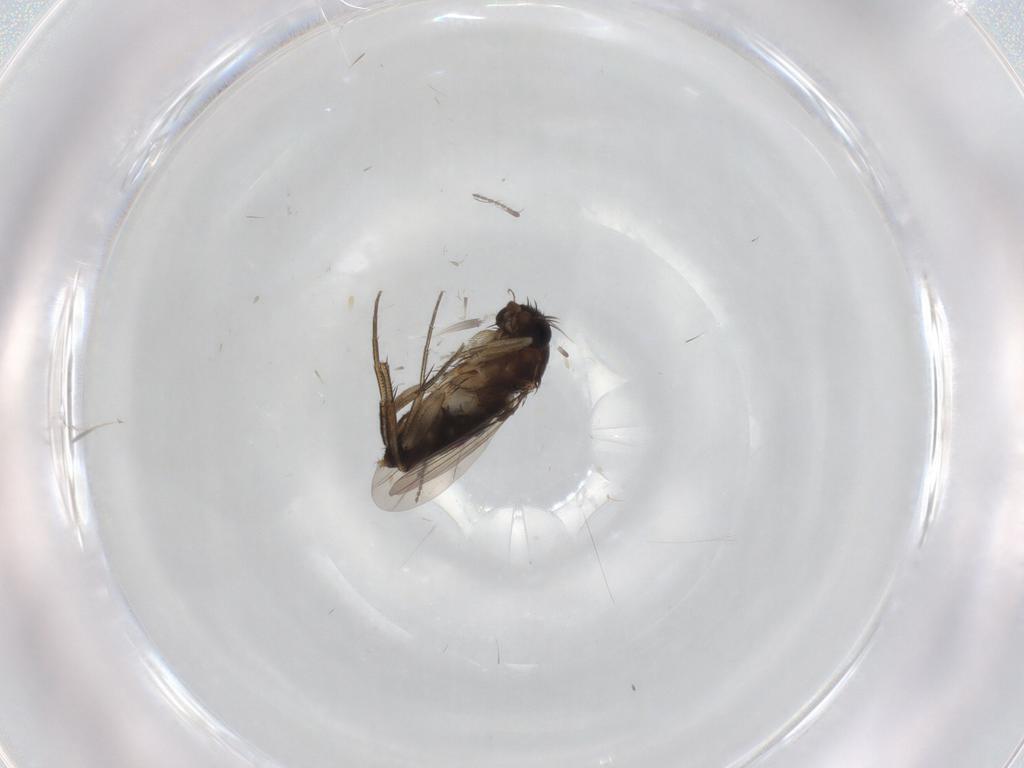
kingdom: Animalia
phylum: Arthropoda
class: Insecta
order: Diptera
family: Phoridae
